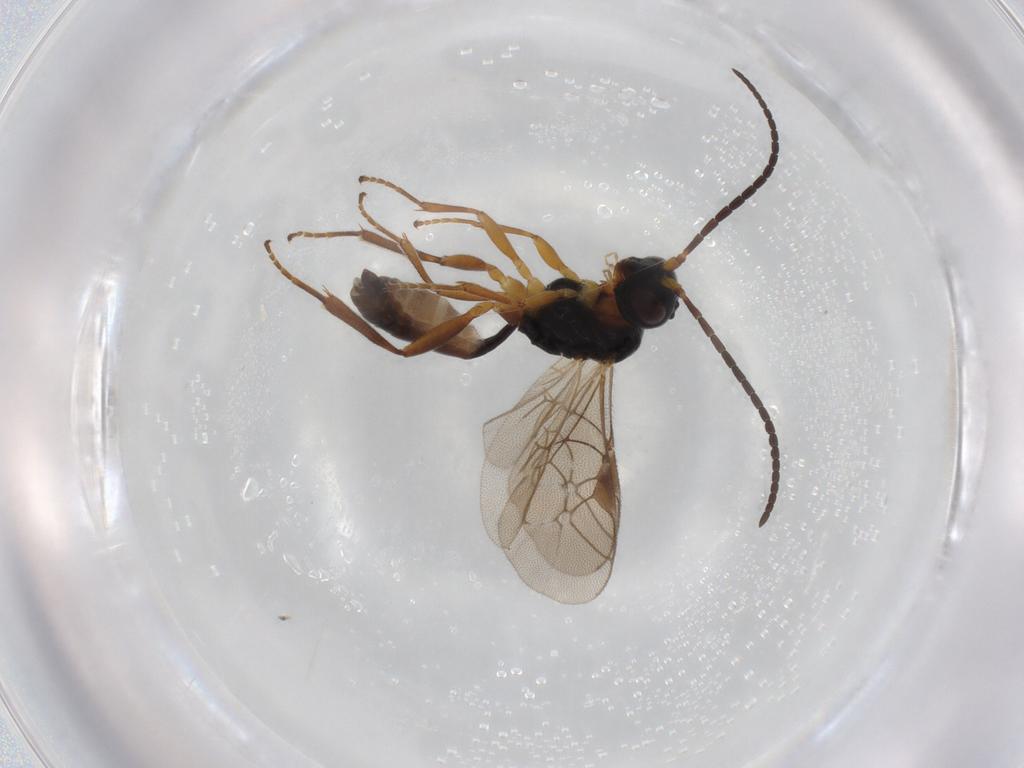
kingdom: Animalia
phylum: Arthropoda
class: Insecta
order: Hymenoptera
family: Ichneumonidae
